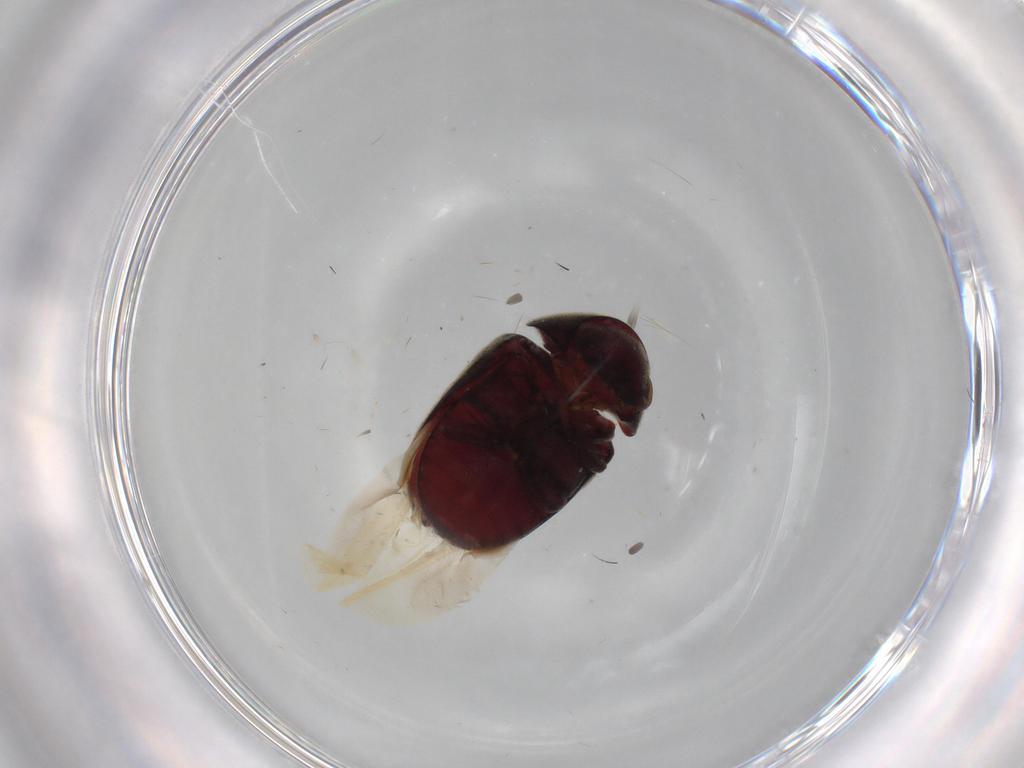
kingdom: Animalia
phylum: Arthropoda
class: Insecta
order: Coleoptera
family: Ptinidae
